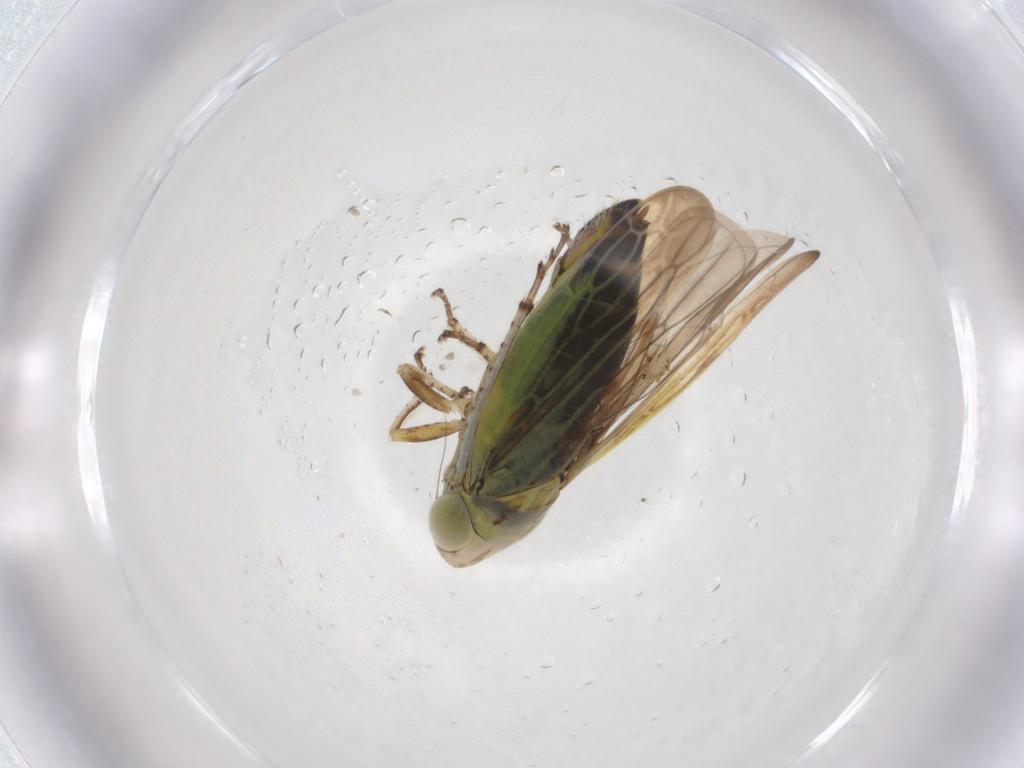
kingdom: Animalia
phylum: Arthropoda
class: Insecta
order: Hemiptera
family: Cicadellidae
